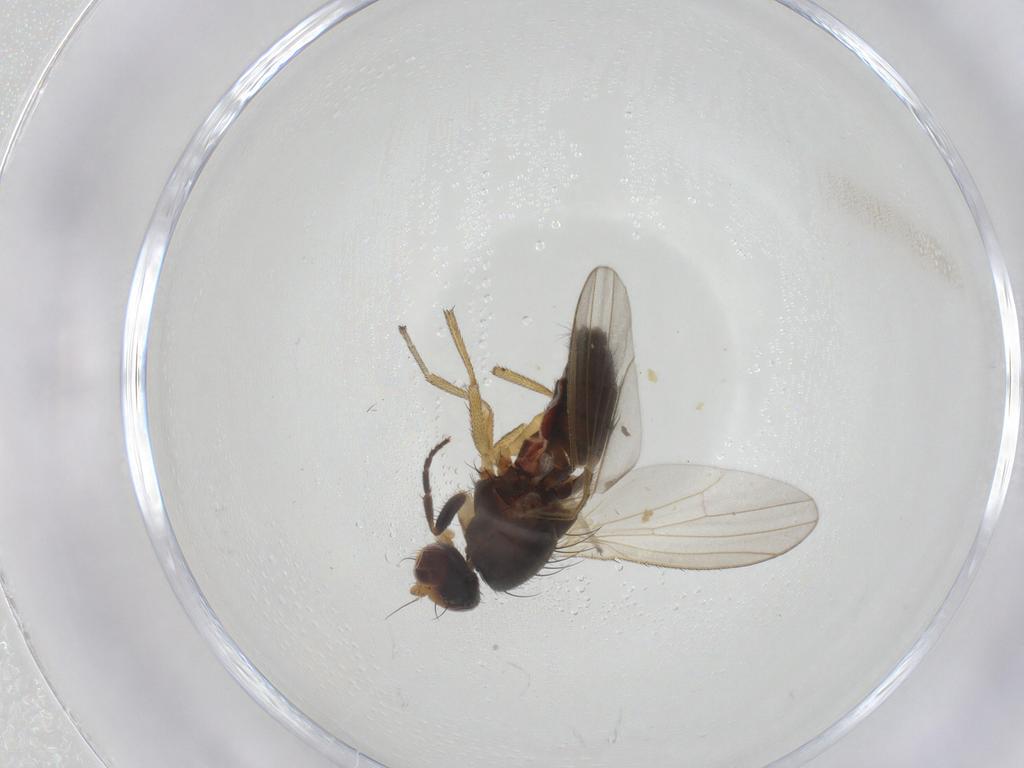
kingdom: Animalia
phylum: Arthropoda
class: Insecta
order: Diptera
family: Heleomyzidae
